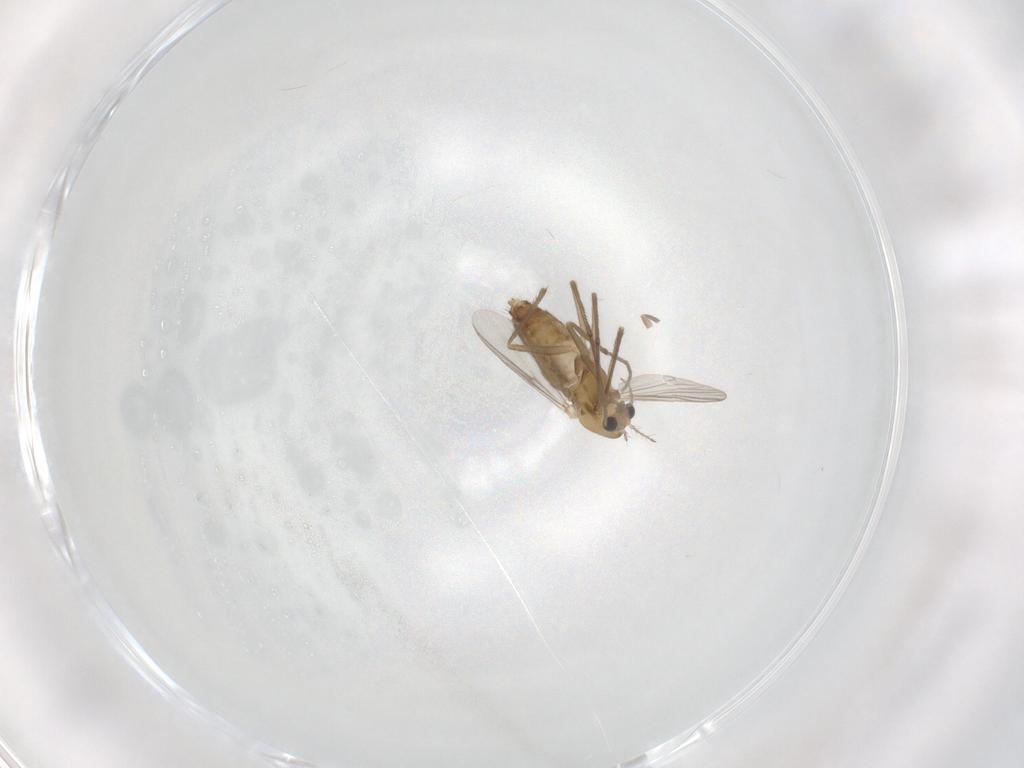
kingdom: Animalia
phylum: Arthropoda
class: Insecta
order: Diptera
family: Chironomidae
